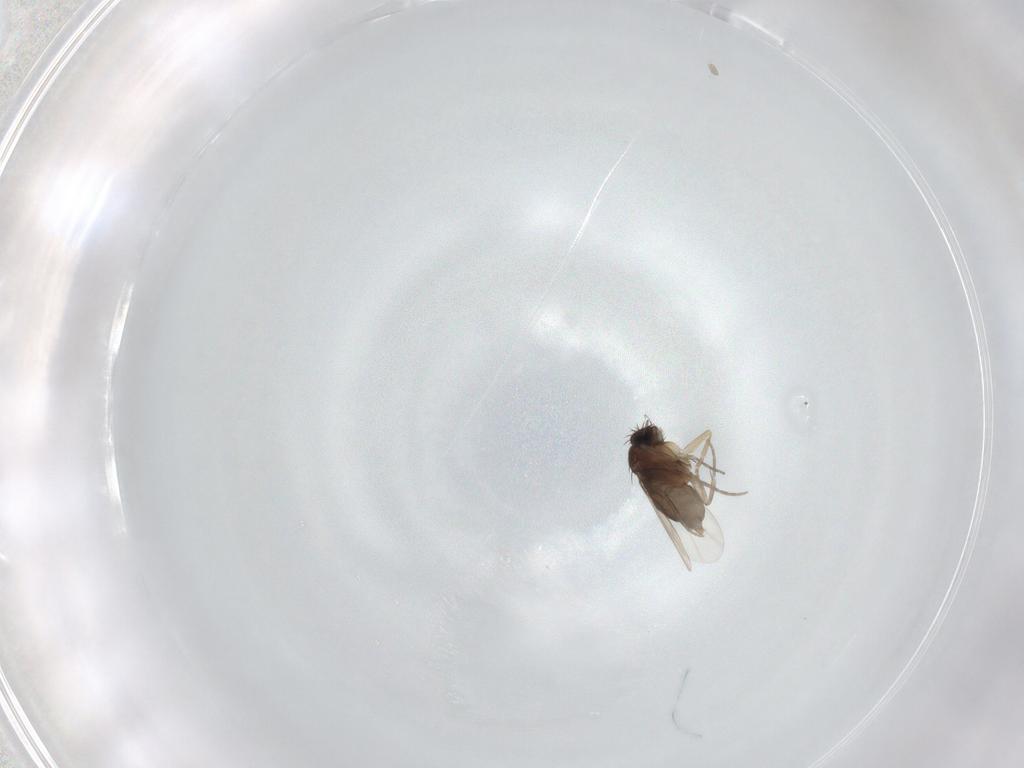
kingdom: Animalia
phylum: Arthropoda
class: Insecta
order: Diptera
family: Phoridae
